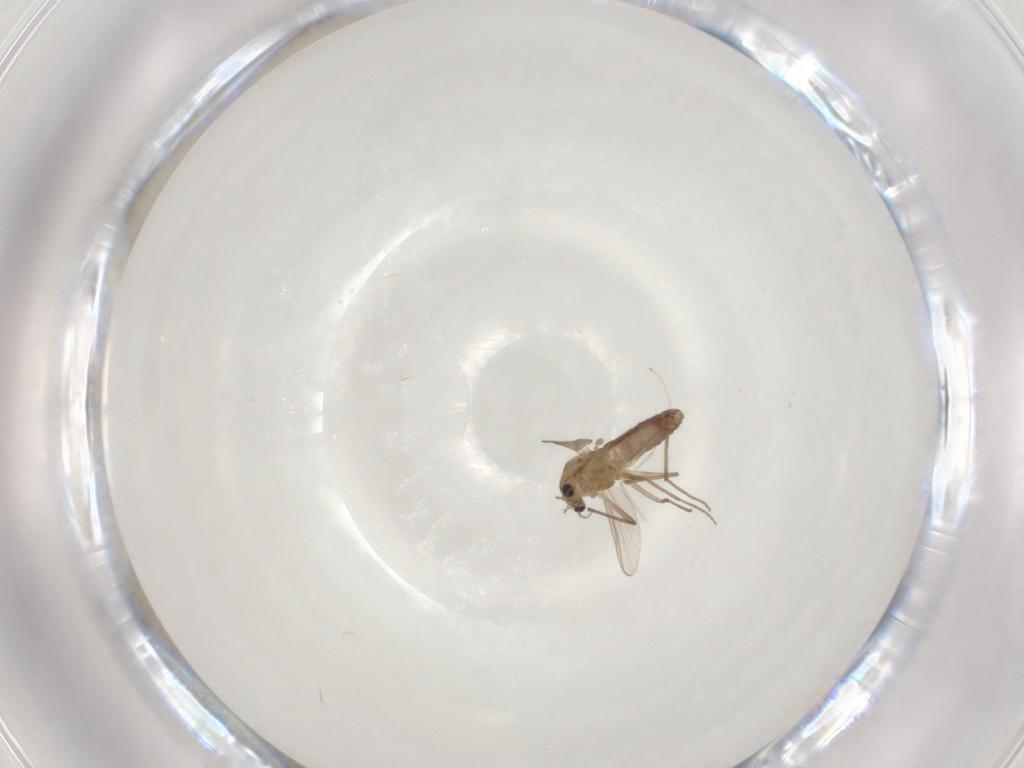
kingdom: Animalia
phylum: Arthropoda
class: Insecta
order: Diptera
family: Chironomidae
